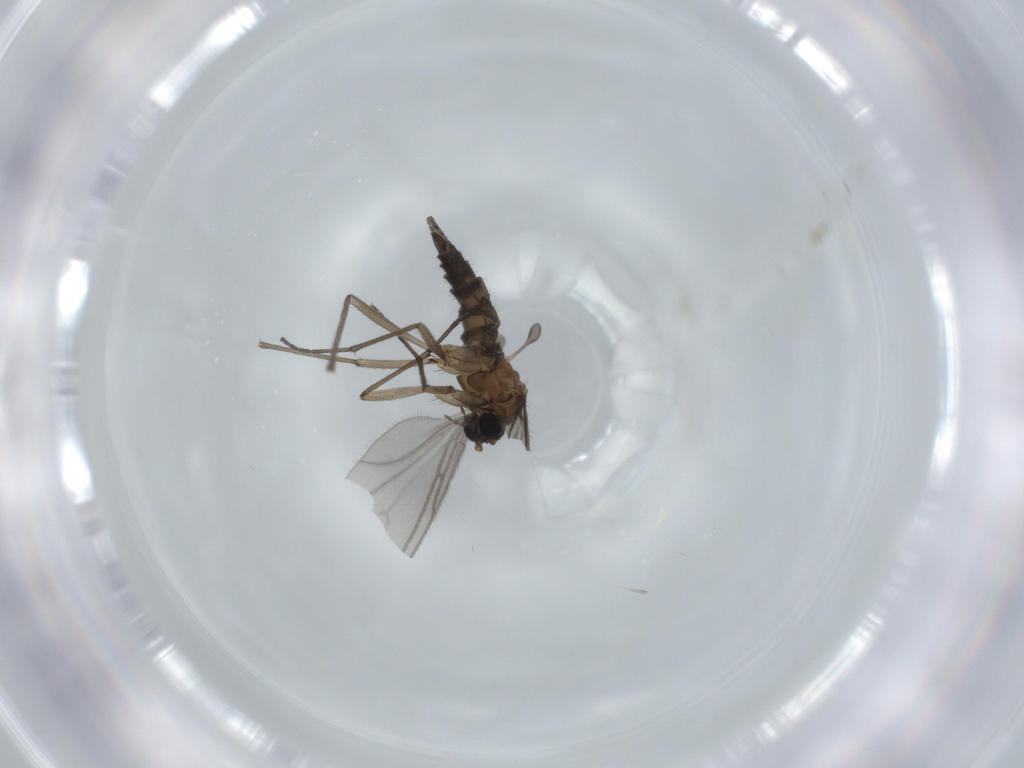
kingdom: Animalia
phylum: Arthropoda
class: Insecta
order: Diptera
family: Sciaridae
